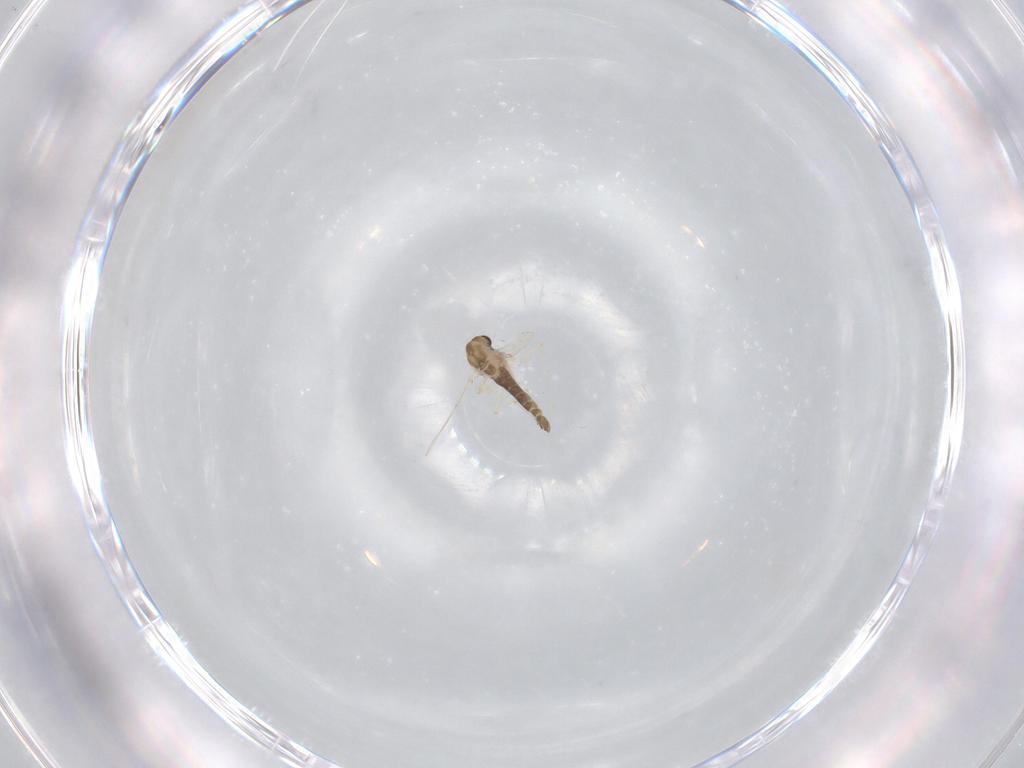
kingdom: Animalia
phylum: Arthropoda
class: Insecta
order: Diptera
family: Chironomidae
